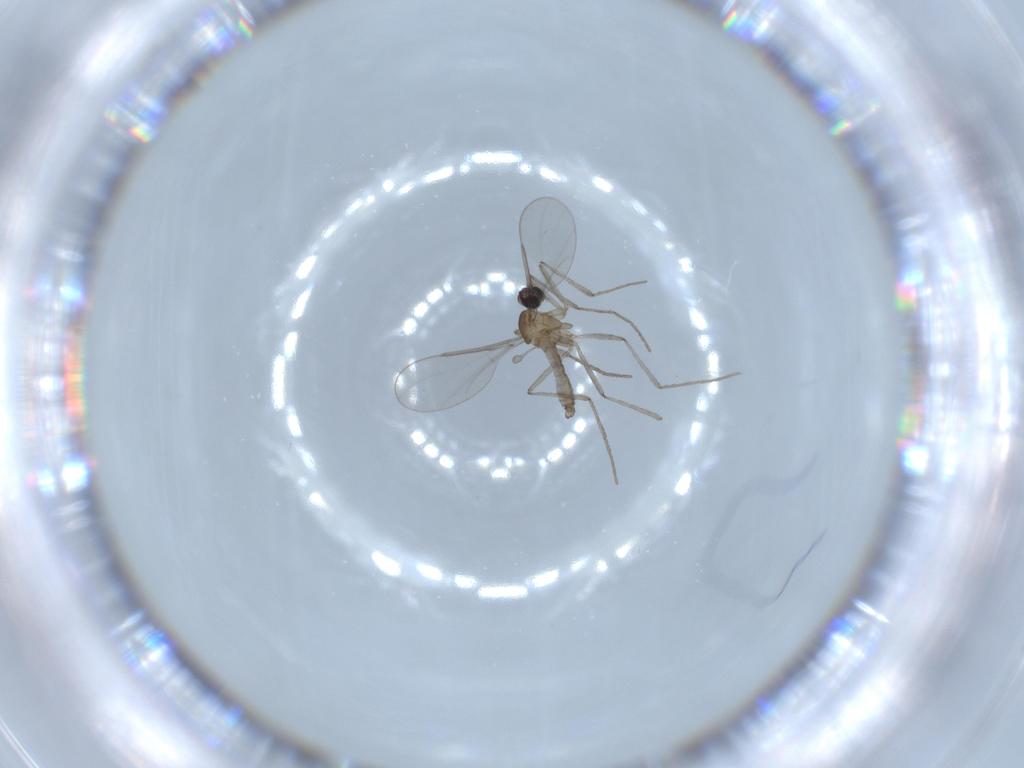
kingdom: Animalia
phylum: Arthropoda
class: Insecta
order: Diptera
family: Cecidomyiidae
